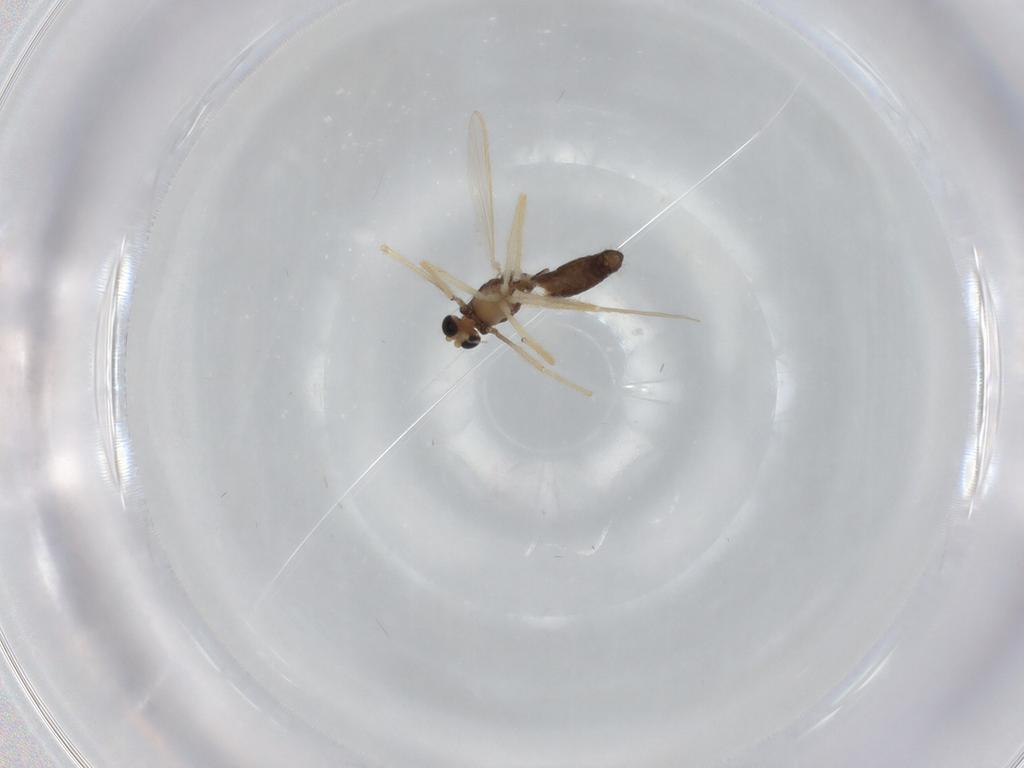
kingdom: Animalia
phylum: Arthropoda
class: Insecta
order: Diptera
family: Chironomidae
